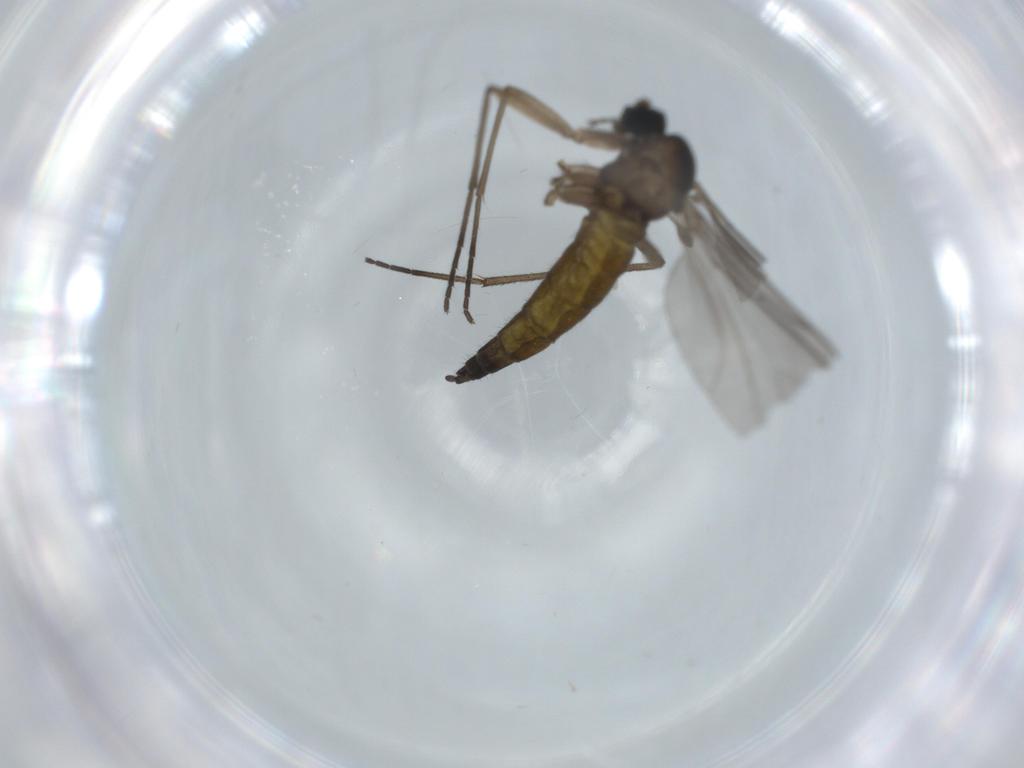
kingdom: Animalia
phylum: Arthropoda
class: Insecta
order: Diptera
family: Sciaridae
